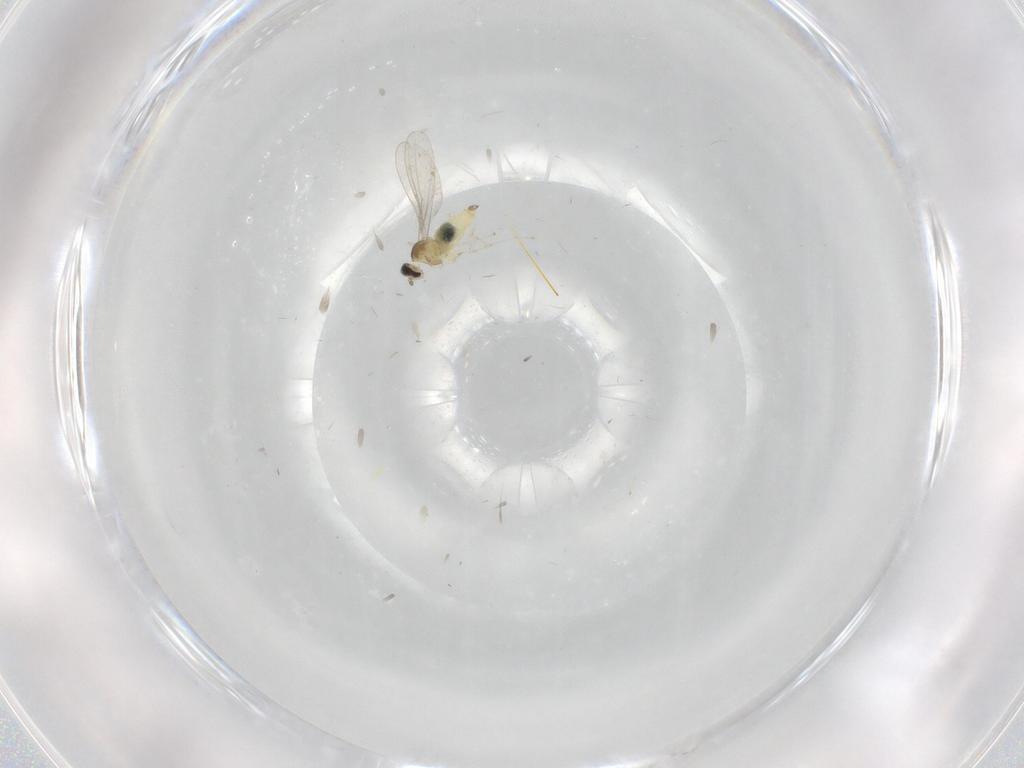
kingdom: Animalia
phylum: Arthropoda
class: Insecta
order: Diptera
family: Cecidomyiidae
